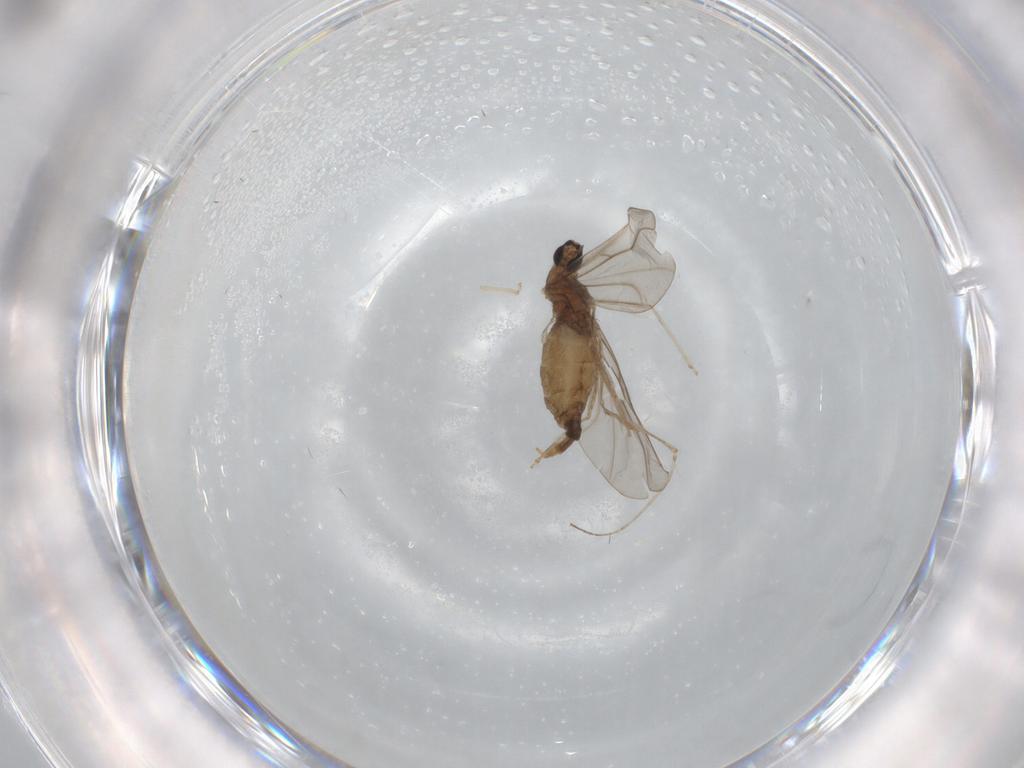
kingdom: Animalia
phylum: Arthropoda
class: Insecta
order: Diptera
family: Cecidomyiidae
